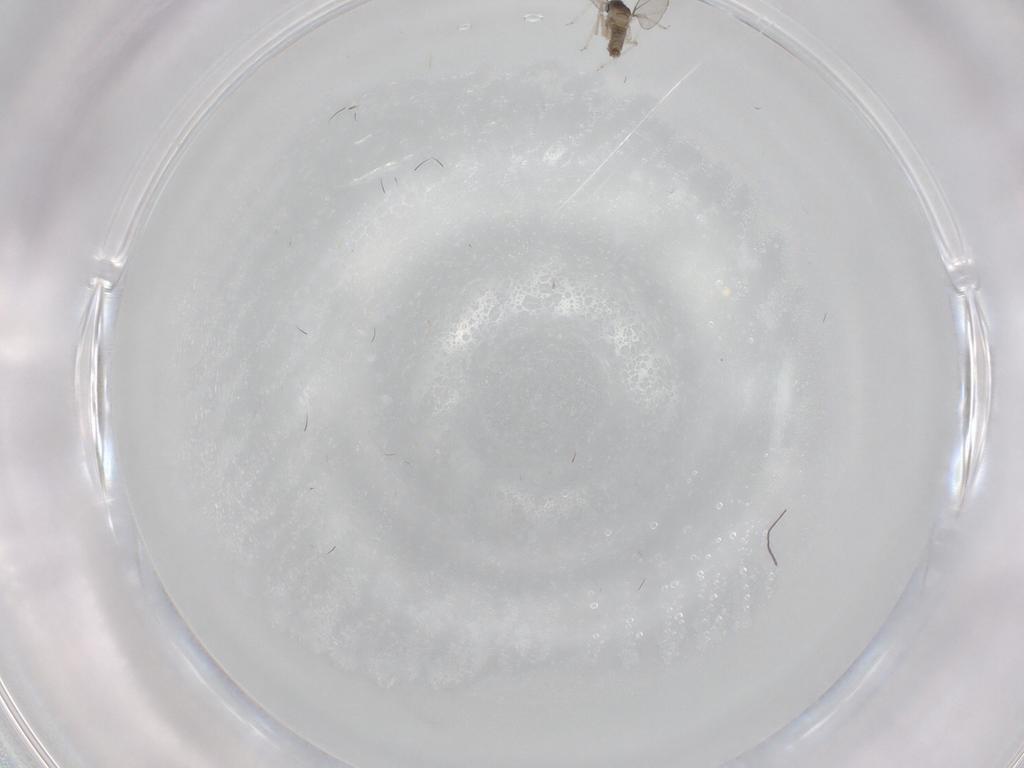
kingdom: Animalia
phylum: Arthropoda
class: Insecta
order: Diptera
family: Cecidomyiidae
